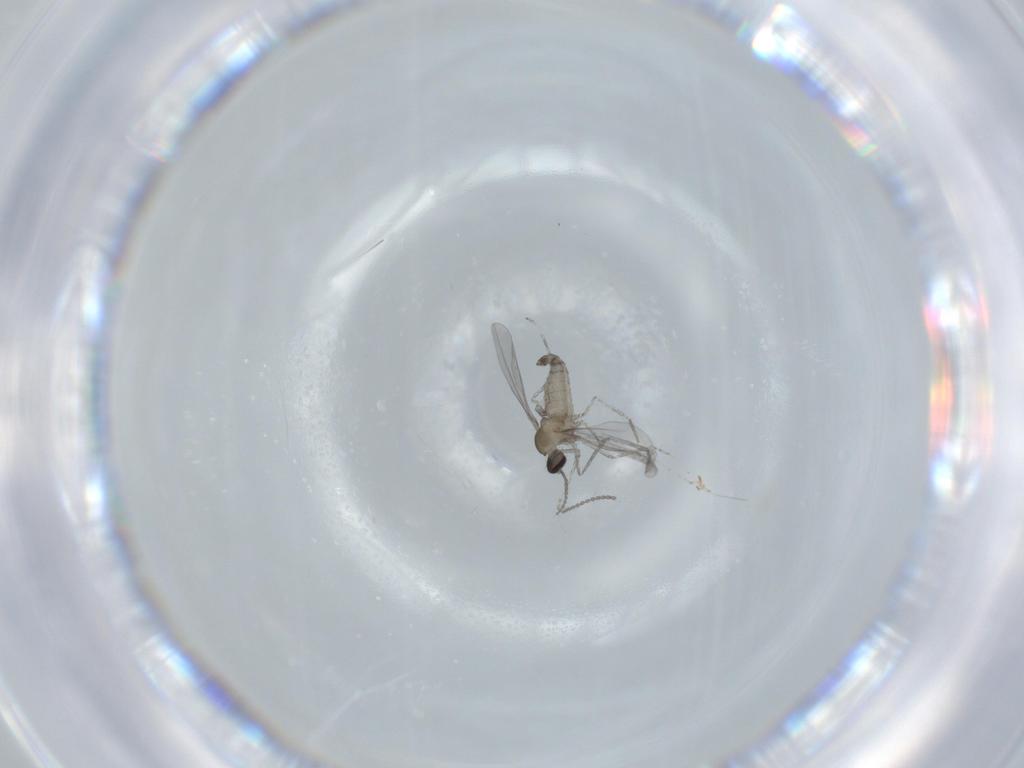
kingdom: Animalia
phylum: Arthropoda
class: Insecta
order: Diptera
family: Cecidomyiidae
